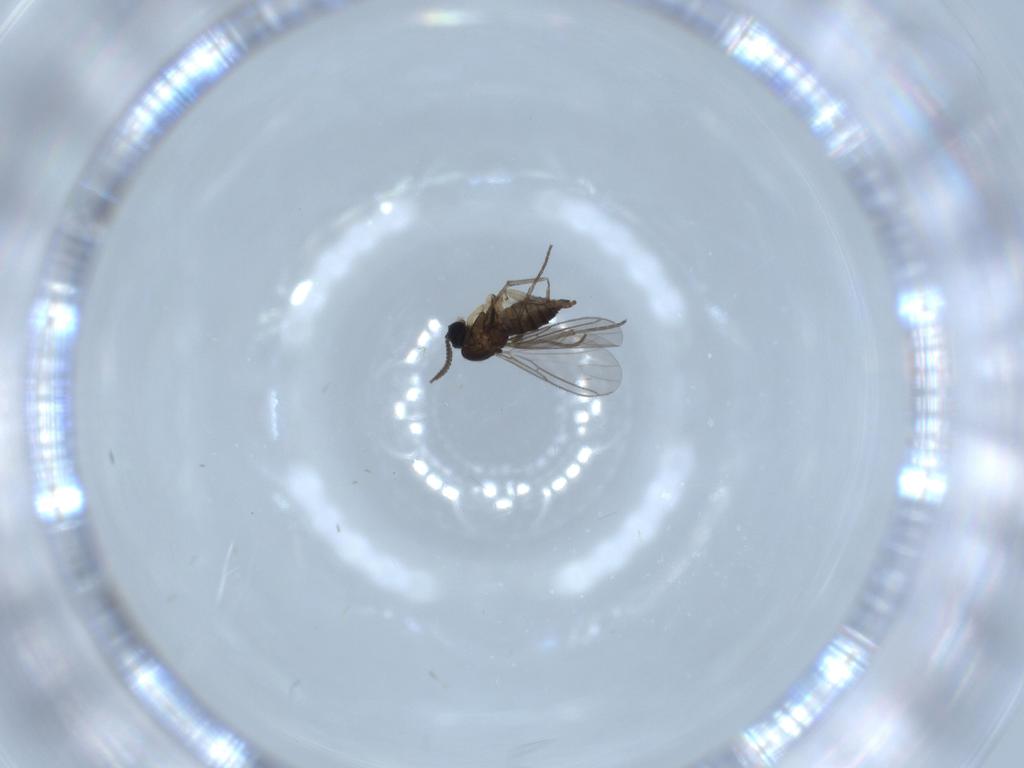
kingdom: Animalia
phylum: Arthropoda
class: Insecta
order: Diptera
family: Sciaridae
